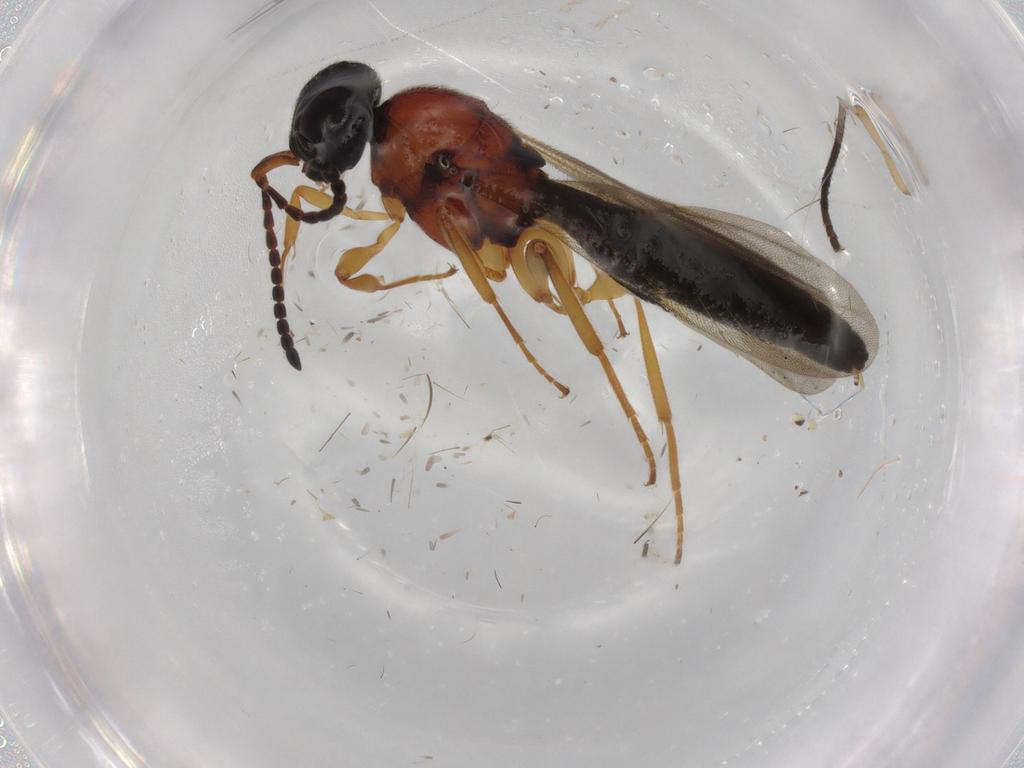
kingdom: Animalia
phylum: Arthropoda
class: Insecta
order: Hymenoptera
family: Scelionidae
